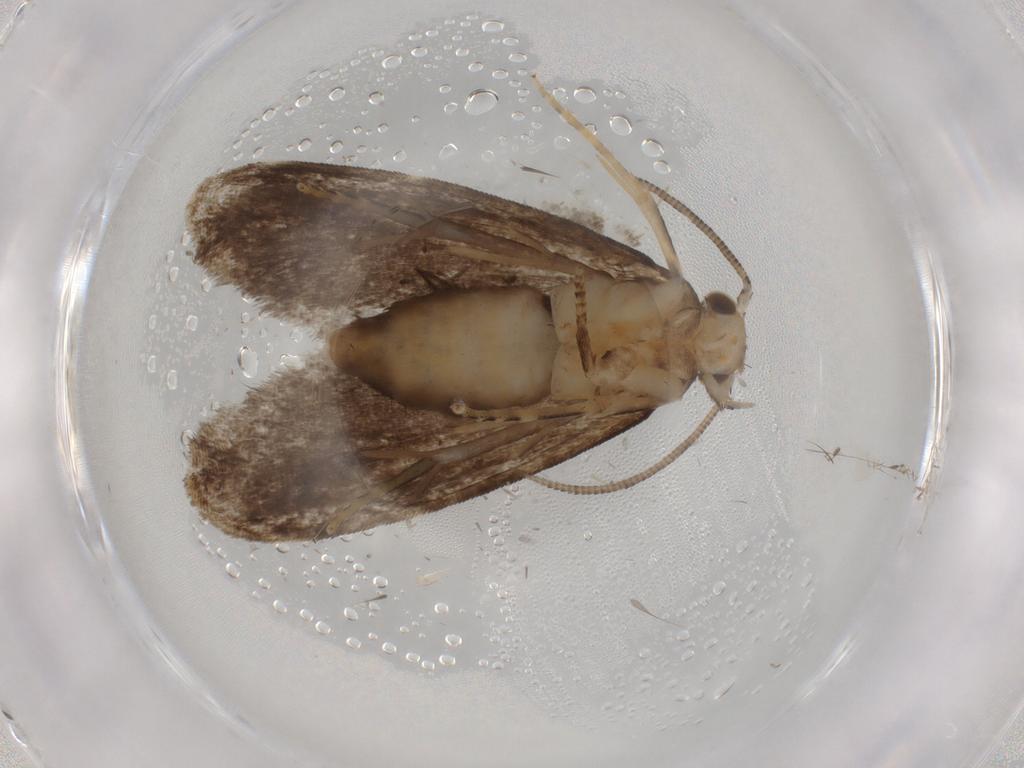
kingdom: Animalia
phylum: Arthropoda
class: Insecta
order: Lepidoptera
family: Dryadaulidae
